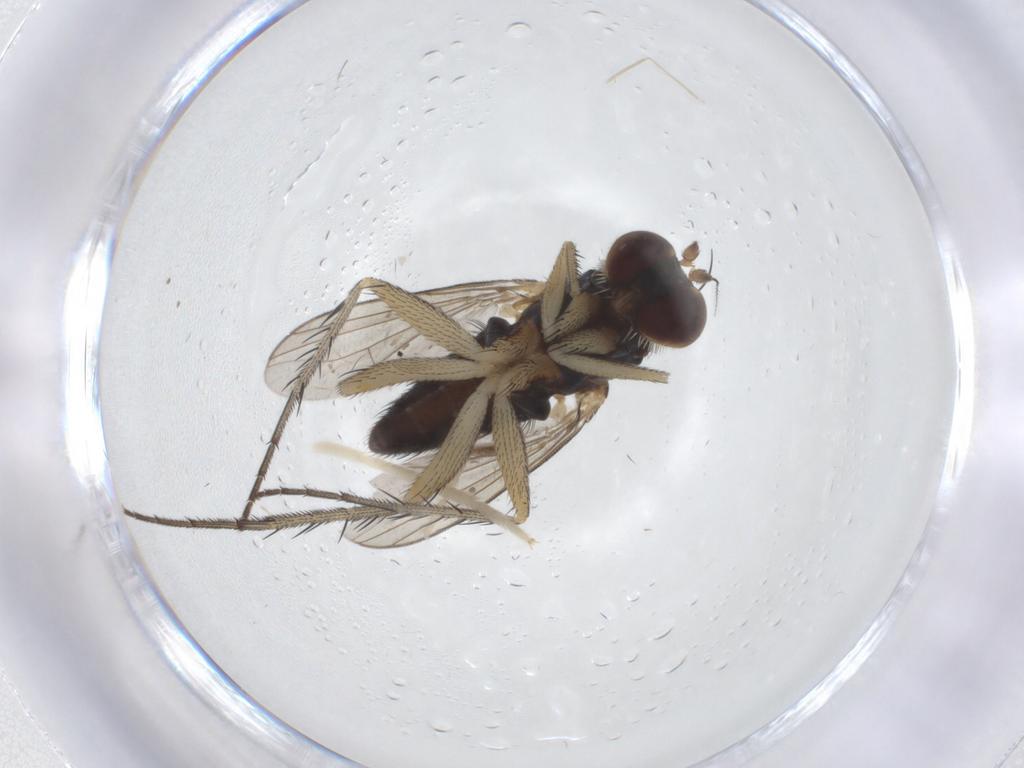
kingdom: Animalia
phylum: Arthropoda
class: Insecta
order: Diptera
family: Dolichopodidae
